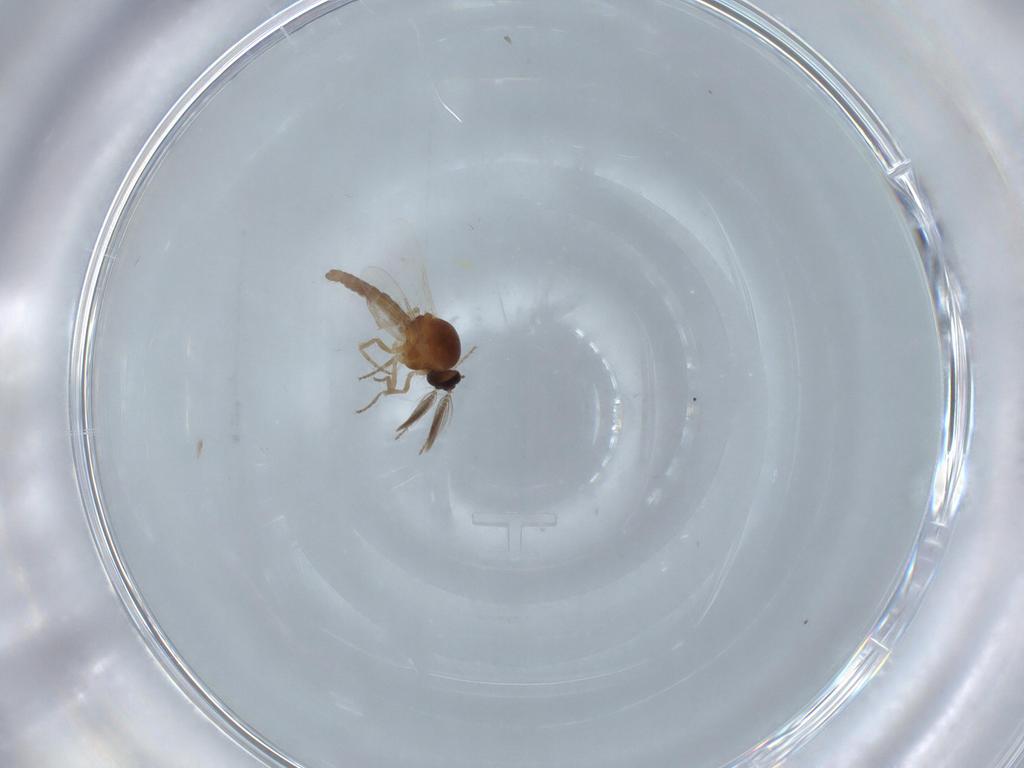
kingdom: Animalia
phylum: Arthropoda
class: Insecta
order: Diptera
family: Ceratopogonidae
